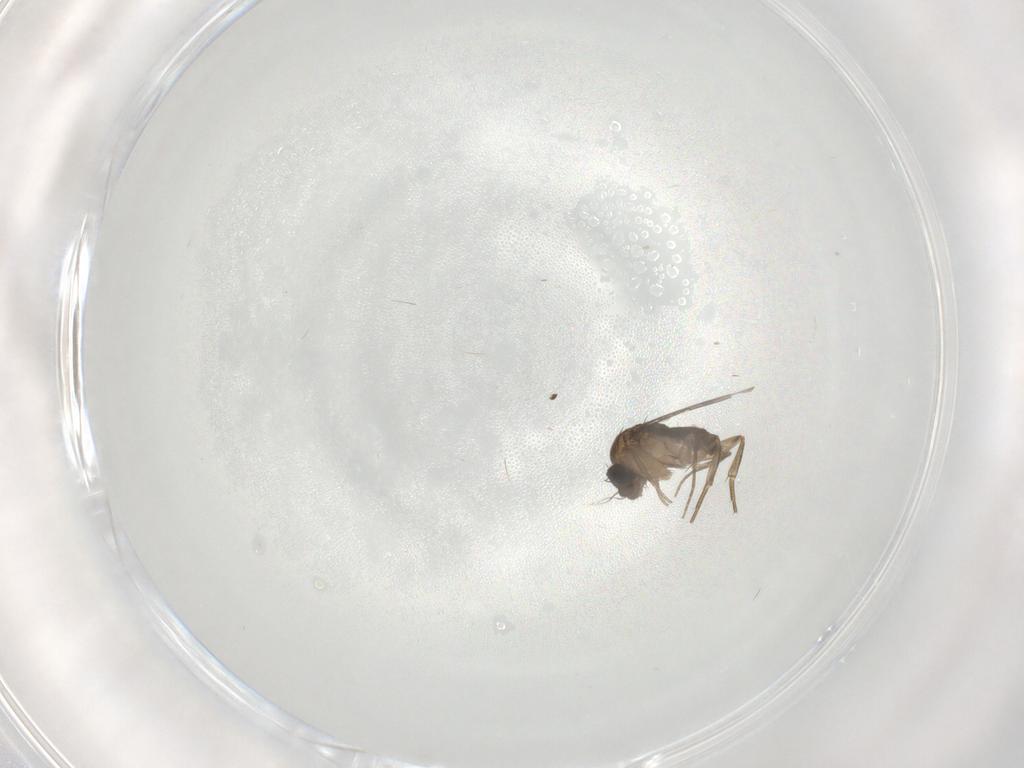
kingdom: Animalia
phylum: Arthropoda
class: Insecta
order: Diptera
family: Phoridae
